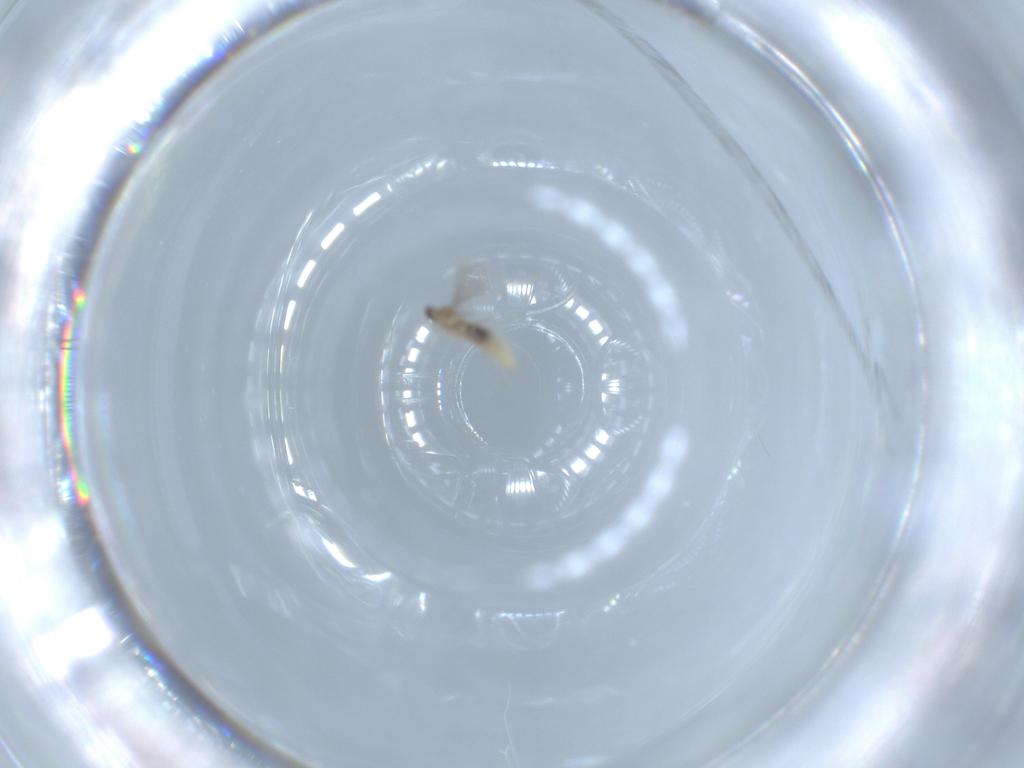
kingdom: Animalia
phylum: Arthropoda
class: Insecta
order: Diptera
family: Cecidomyiidae
